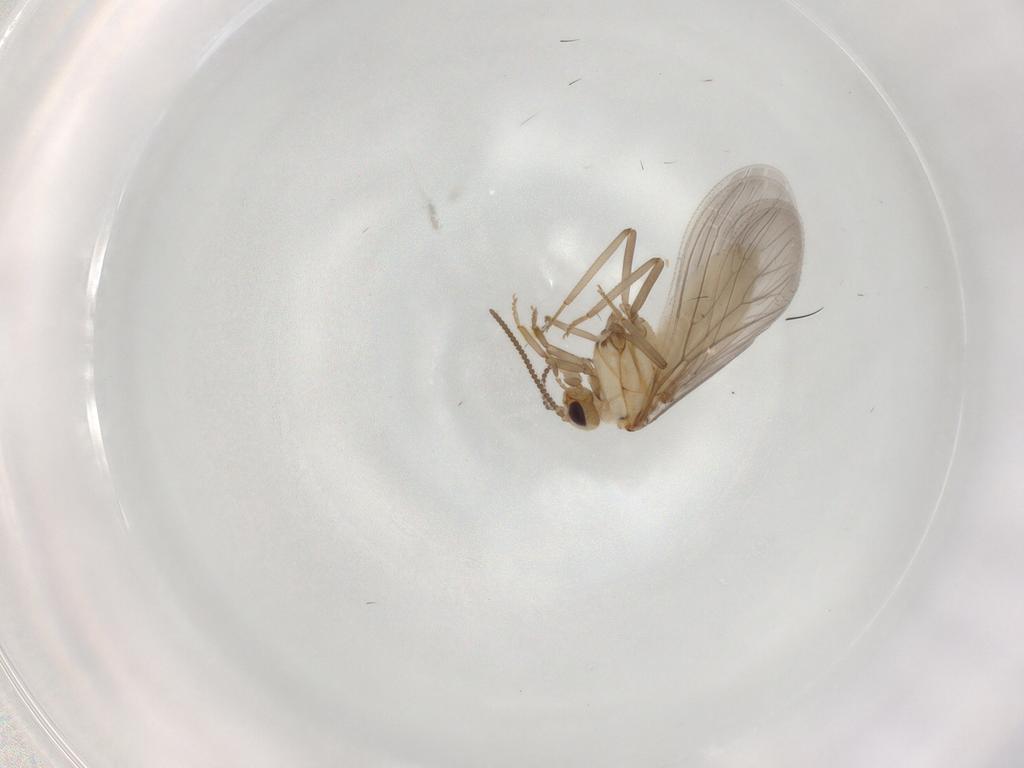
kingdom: Animalia
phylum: Arthropoda
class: Insecta
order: Neuroptera
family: Coniopterygidae
